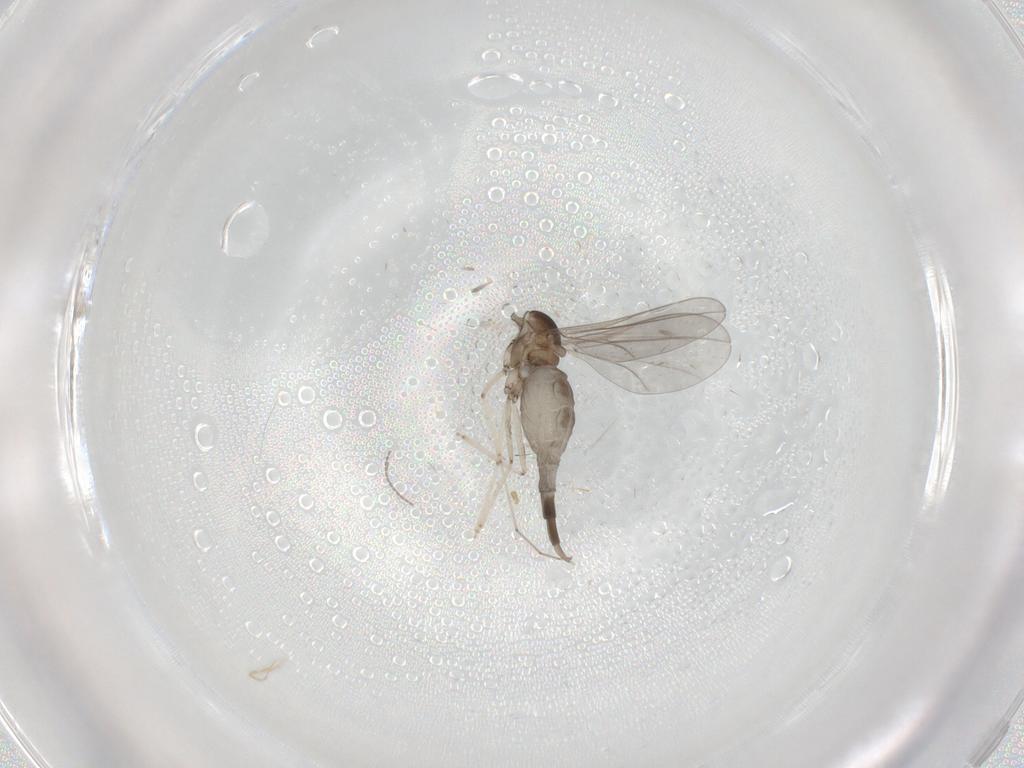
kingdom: Animalia
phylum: Arthropoda
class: Insecta
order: Diptera
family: Cecidomyiidae
